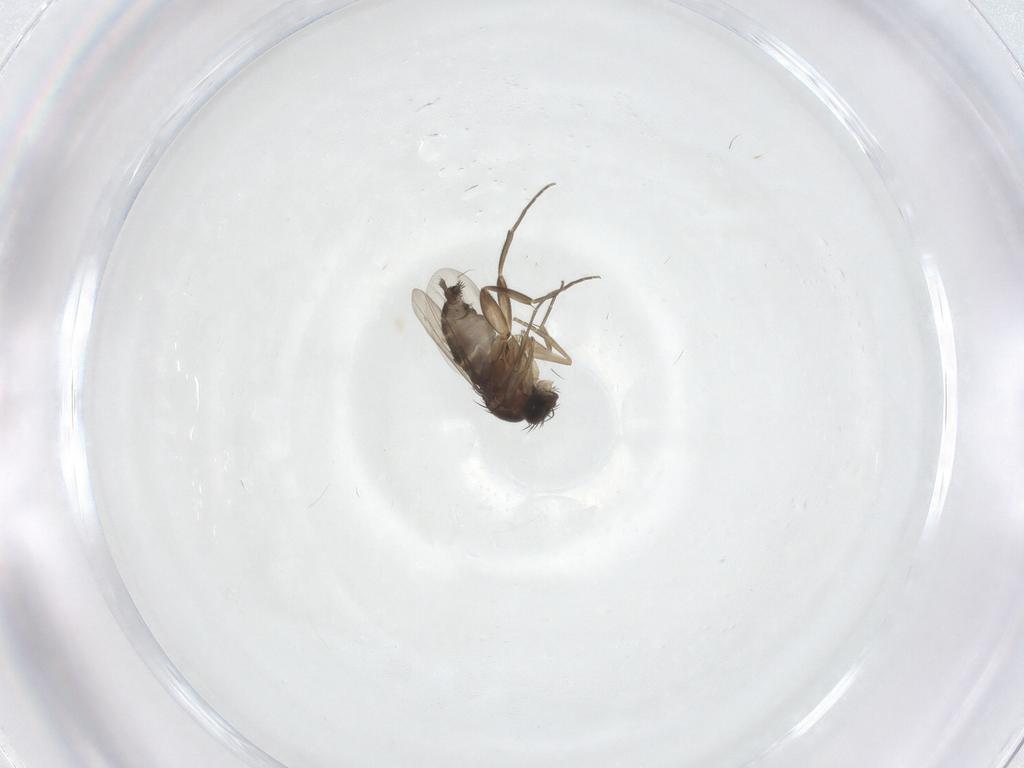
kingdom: Animalia
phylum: Arthropoda
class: Insecta
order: Diptera
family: Phoridae
